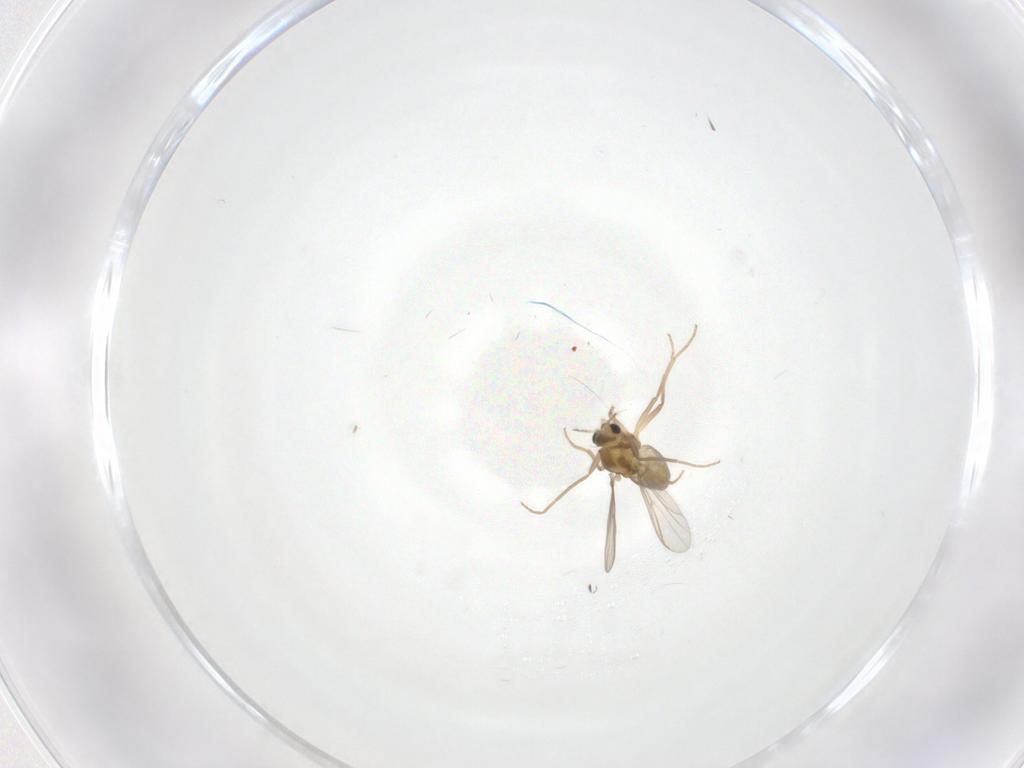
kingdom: Animalia
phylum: Arthropoda
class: Insecta
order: Diptera
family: Chironomidae
